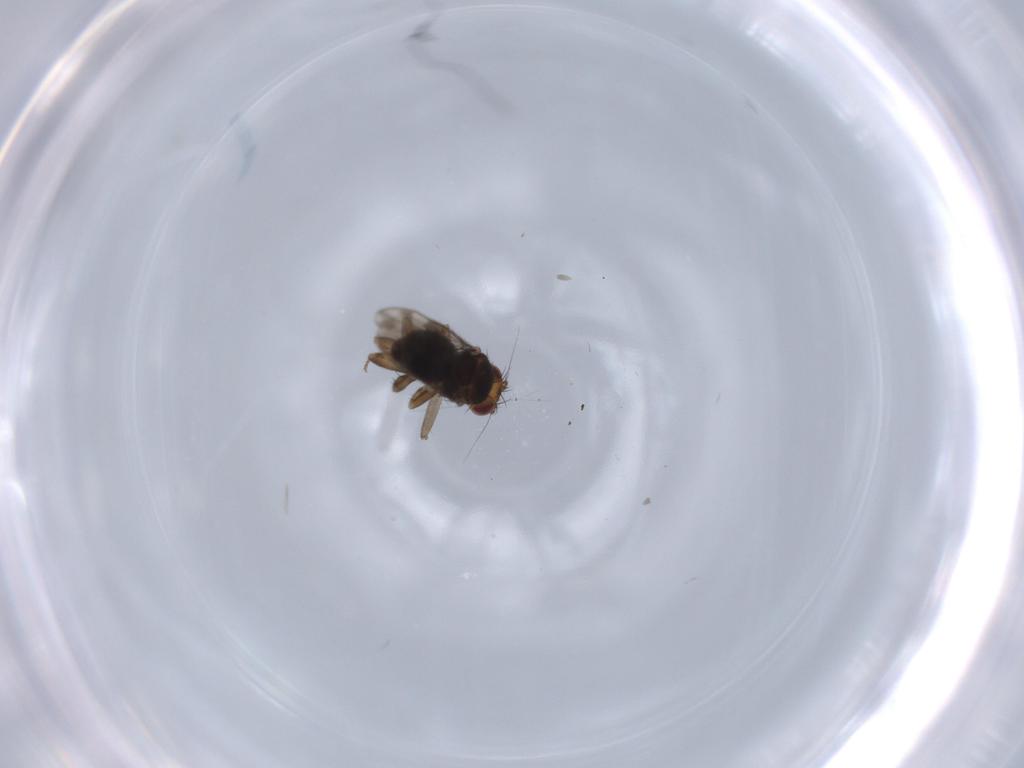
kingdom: Animalia
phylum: Arthropoda
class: Insecta
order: Diptera
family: Sphaeroceridae
